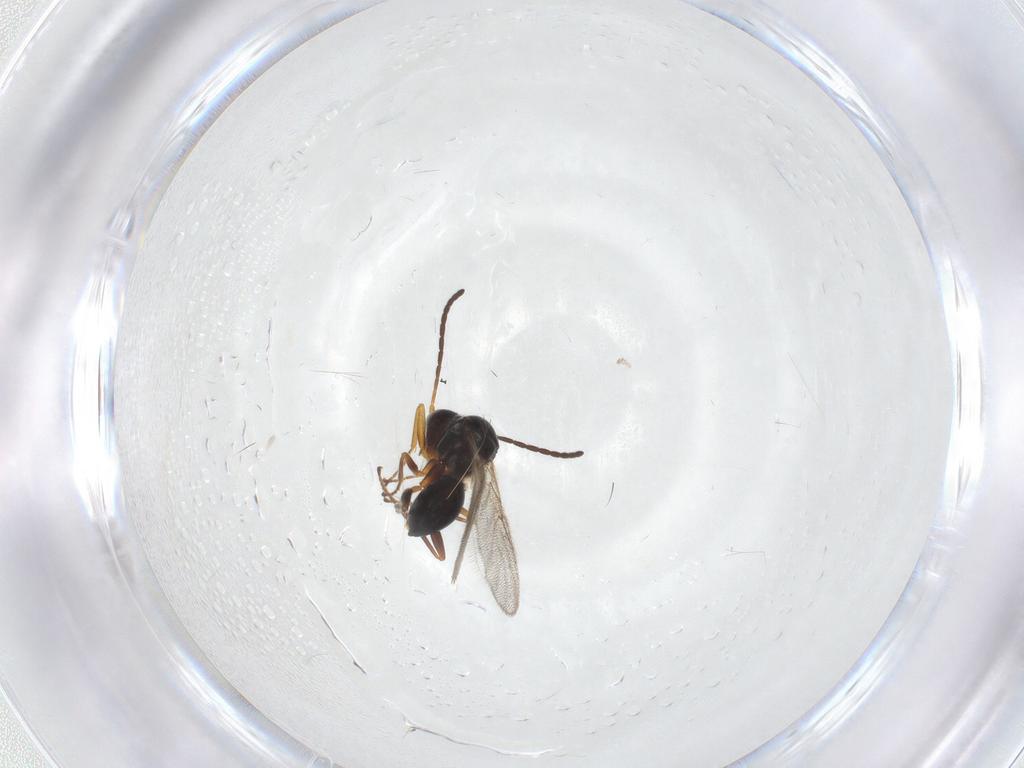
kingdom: Animalia
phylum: Arthropoda
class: Insecta
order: Hymenoptera
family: Figitidae
